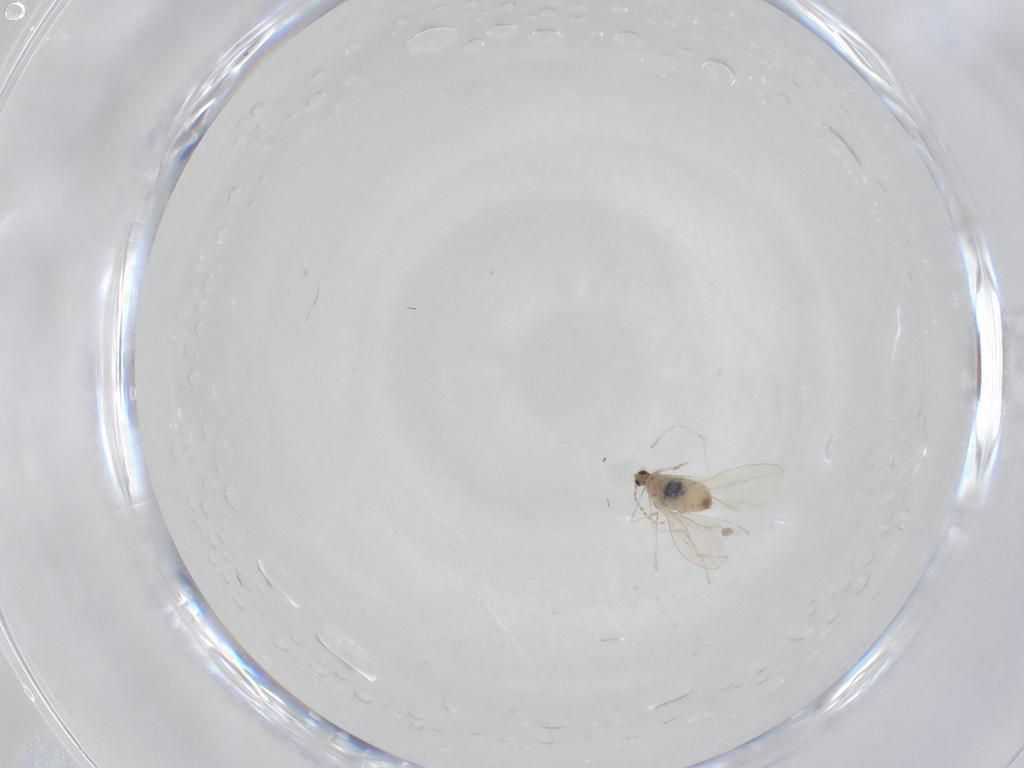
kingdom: Animalia
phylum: Arthropoda
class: Insecta
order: Diptera
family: Cecidomyiidae
